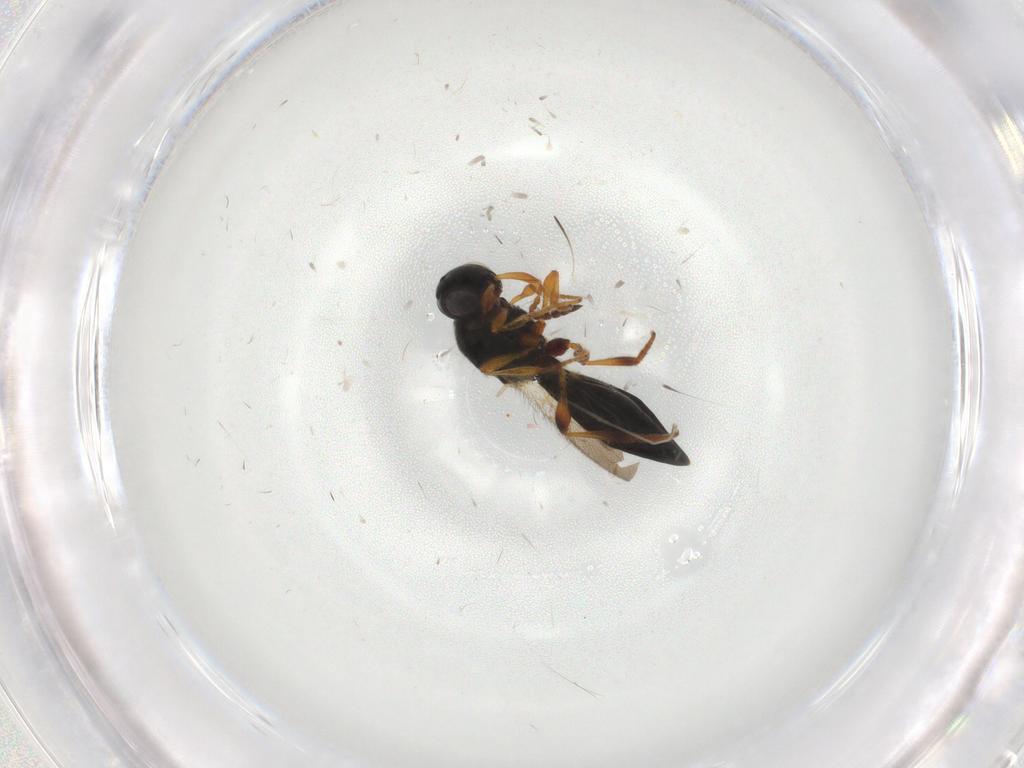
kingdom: Animalia
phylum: Arthropoda
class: Insecta
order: Hymenoptera
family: Platygastridae
